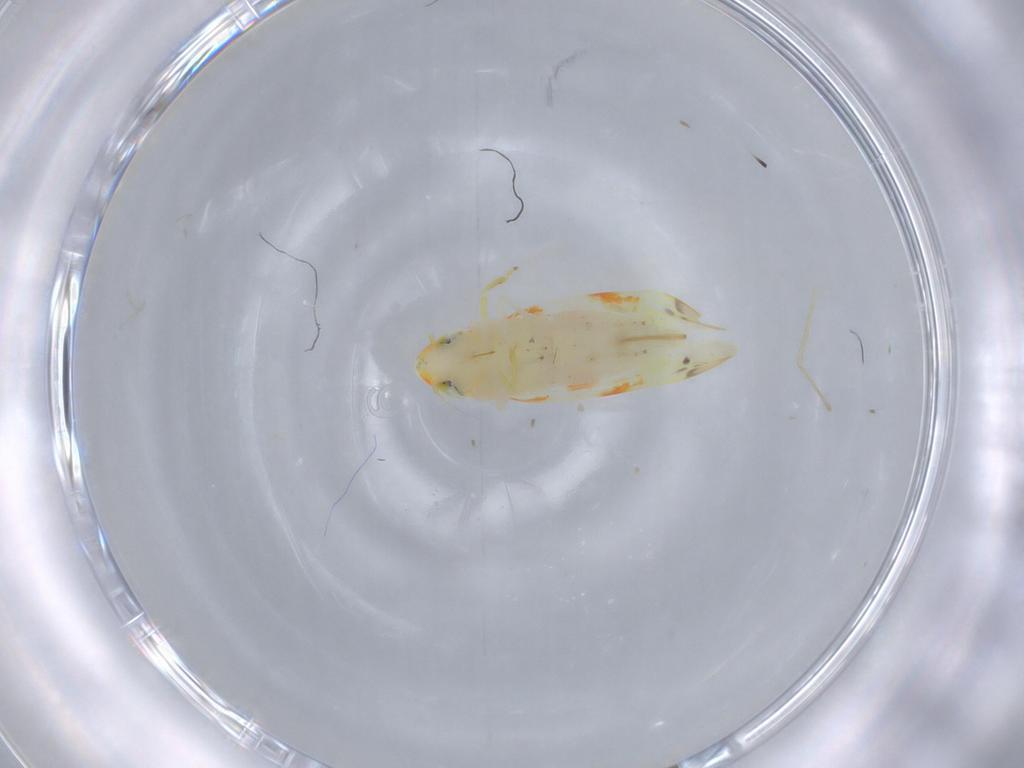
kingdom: Animalia
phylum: Arthropoda
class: Insecta
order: Hemiptera
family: Cicadellidae
